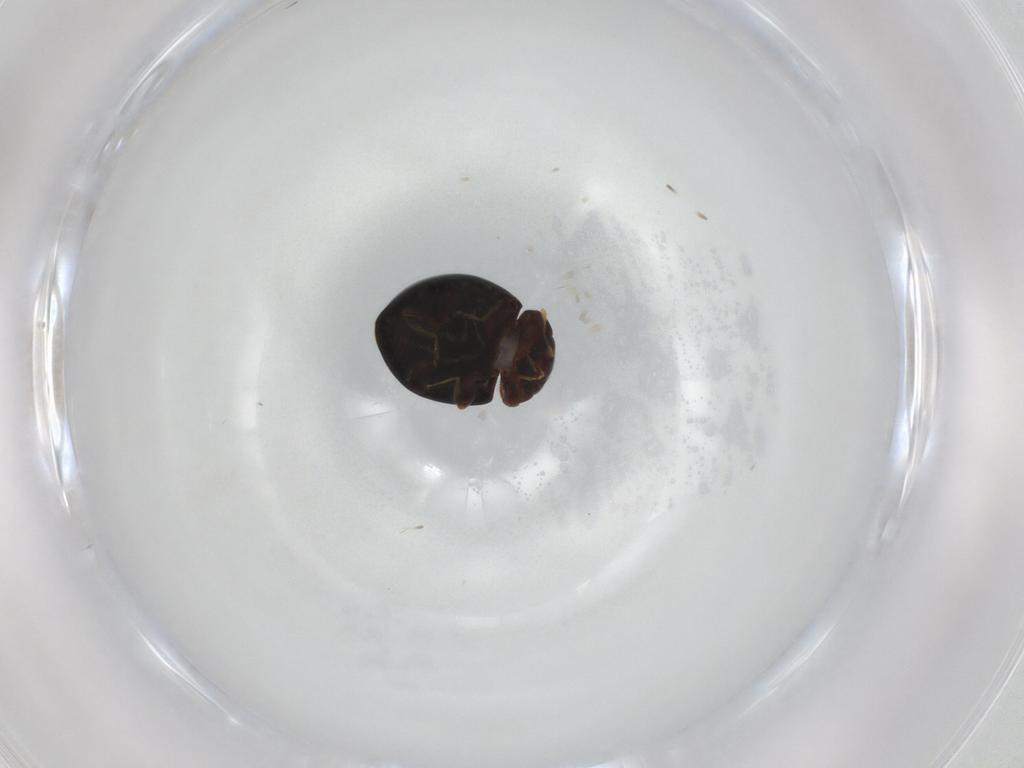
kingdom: Animalia
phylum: Arthropoda
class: Insecta
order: Coleoptera
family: Coccinellidae
